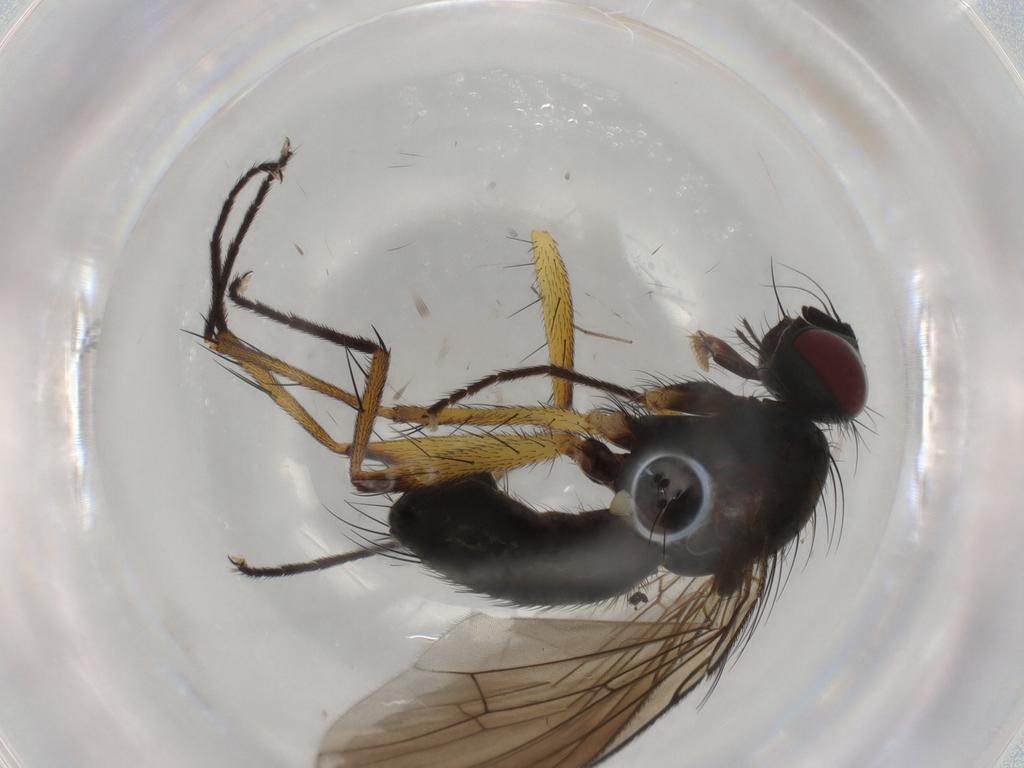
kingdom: Animalia
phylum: Arthropoda
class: Insecta
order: Diptera
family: Muscidae
